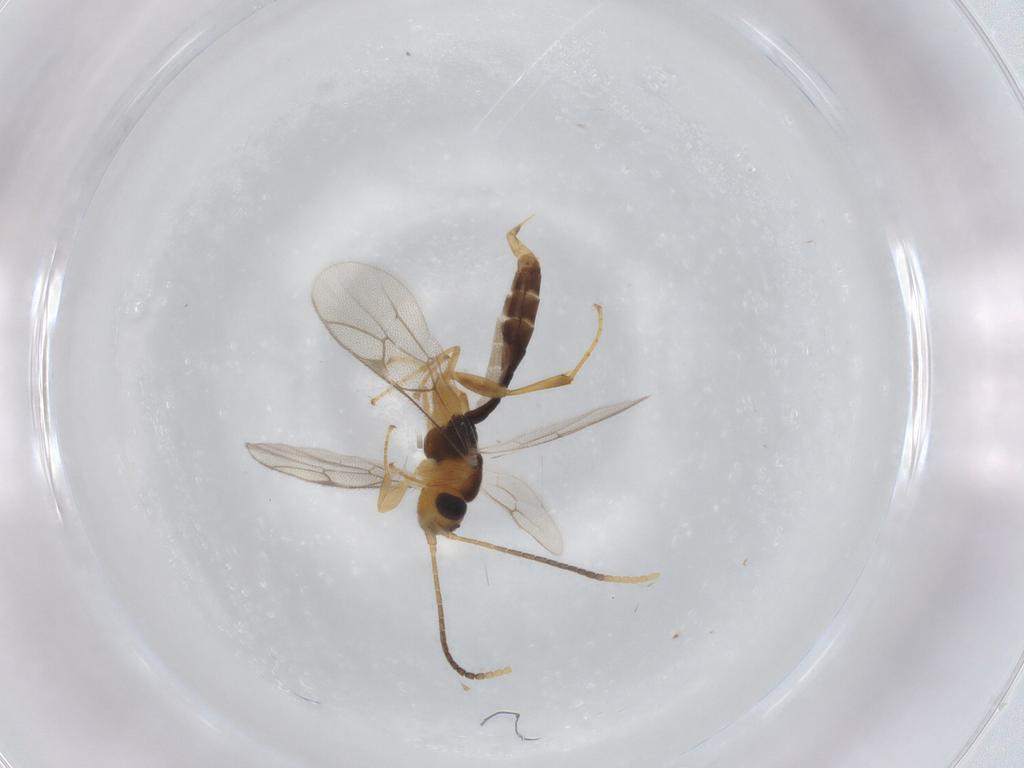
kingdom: Animalia
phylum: Arthropoda
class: Insecta
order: Hymenoptera
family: Ichneumonidae
